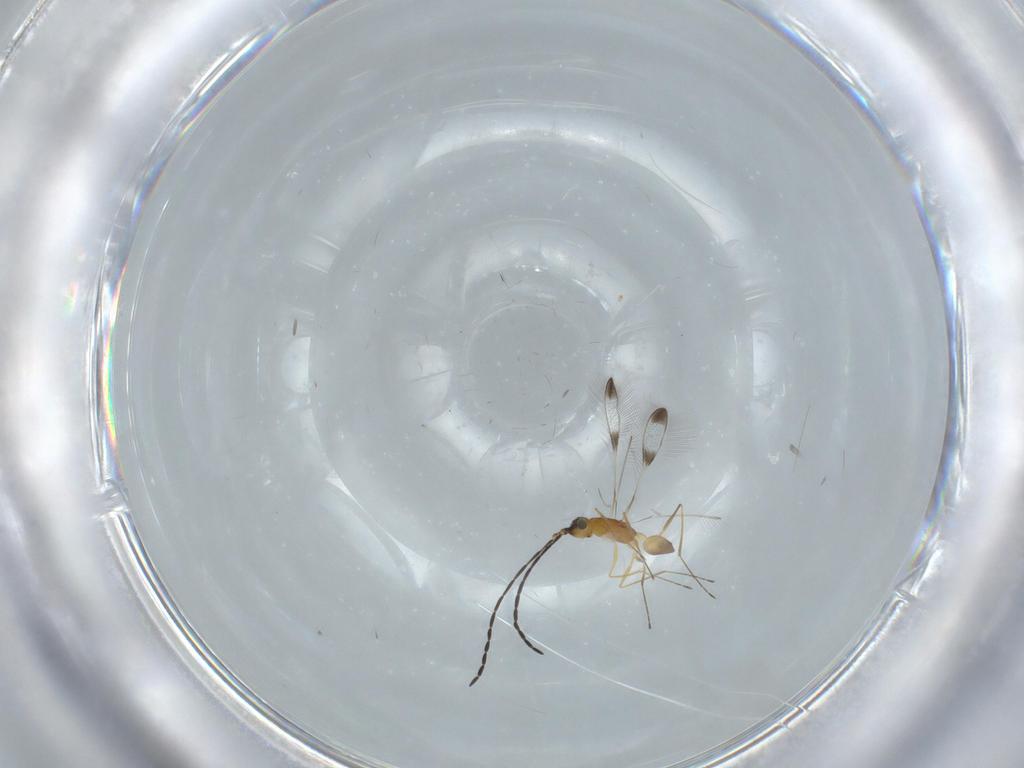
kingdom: Animalia
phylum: Arthropoda
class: Insecta
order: Hymenoptera
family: Mymaridae
